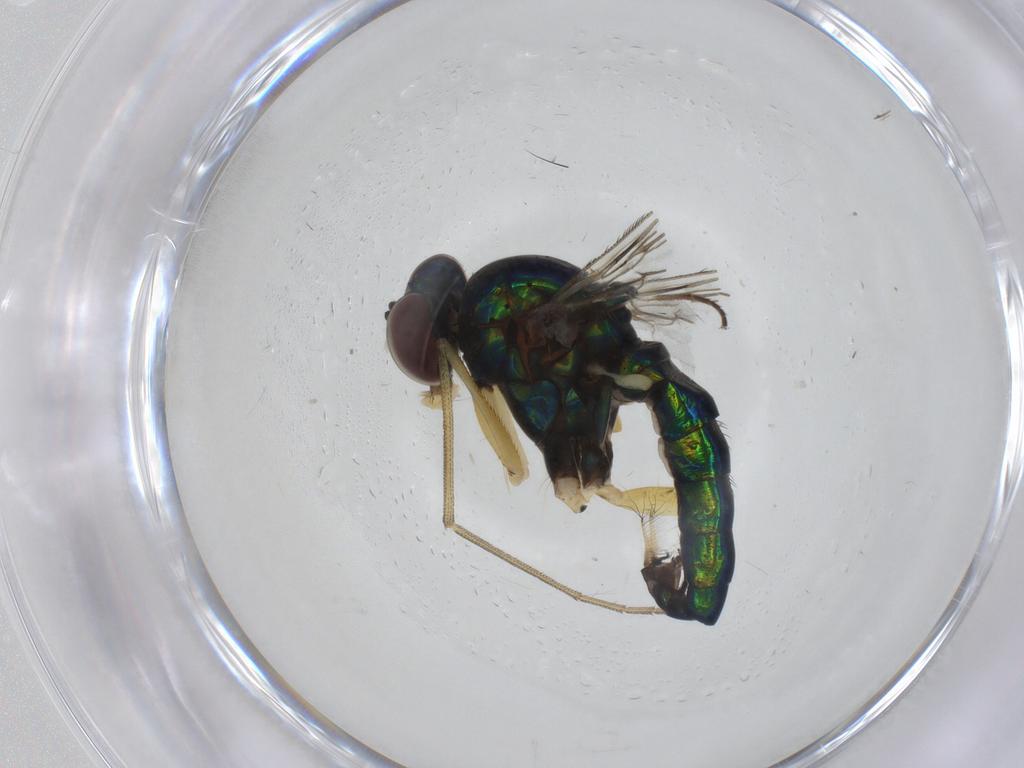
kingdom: Animalia
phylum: Arthropoda
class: Insecta
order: Diptera
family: Dolichopodidae
